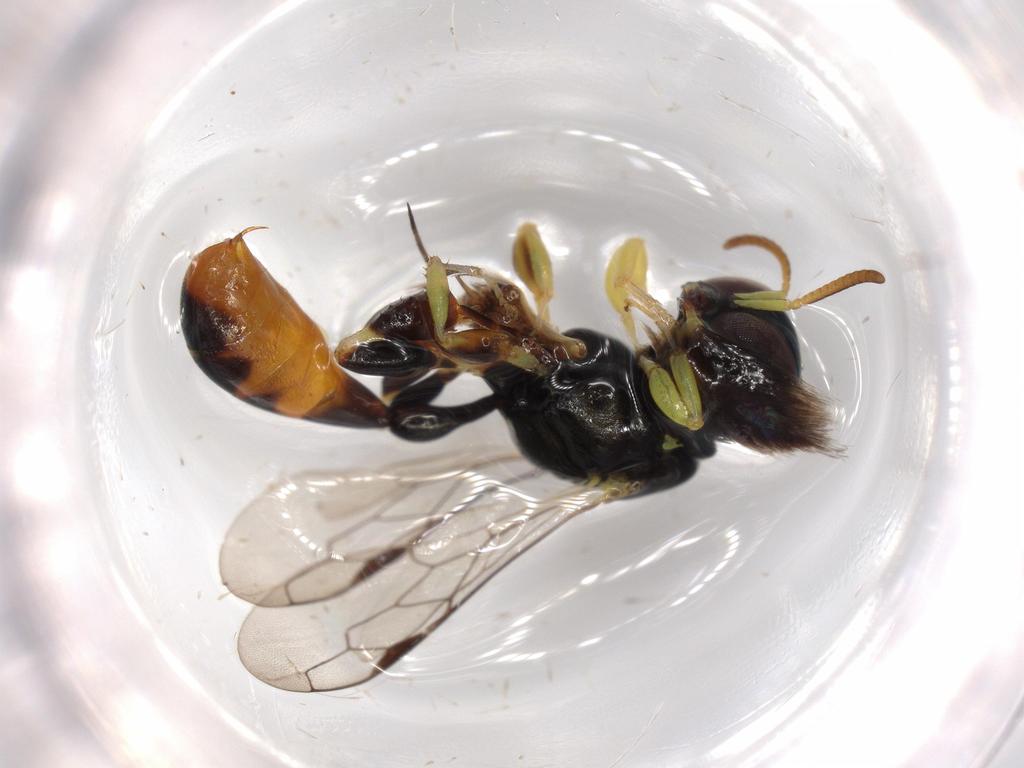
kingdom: Animalia
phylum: Arthropoda
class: Insecta
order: Hymenoptera
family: Crabronidae
